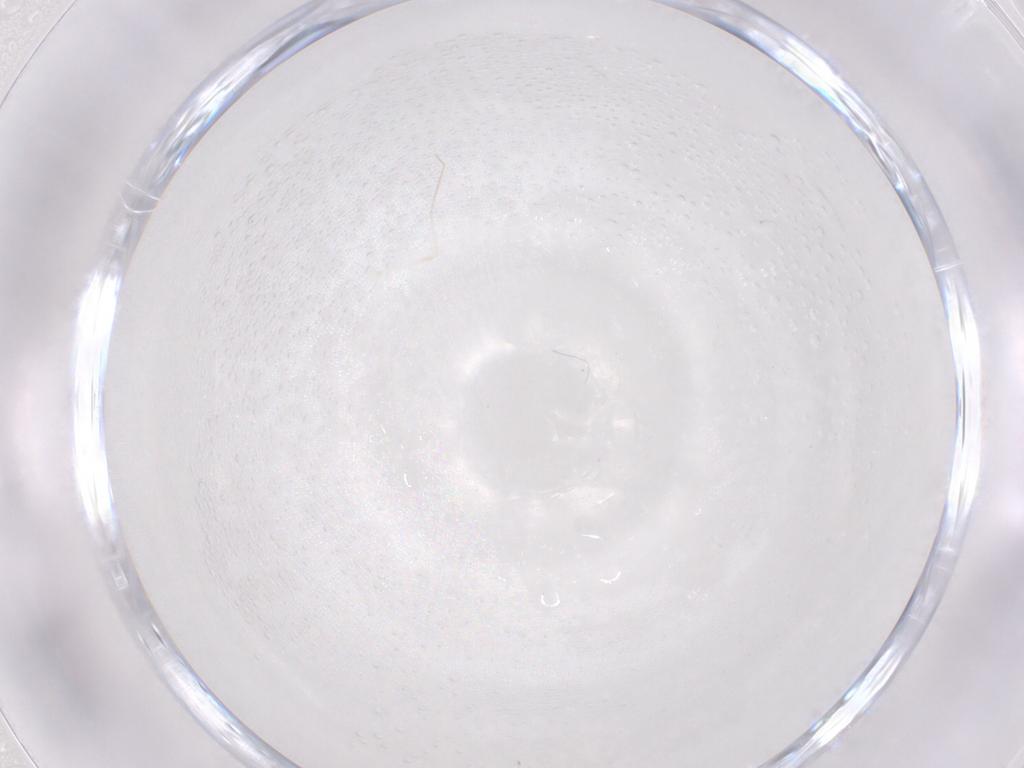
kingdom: Animalia
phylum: Arthropoda
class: Insecta
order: Diptera
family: Cecidomyiidae
